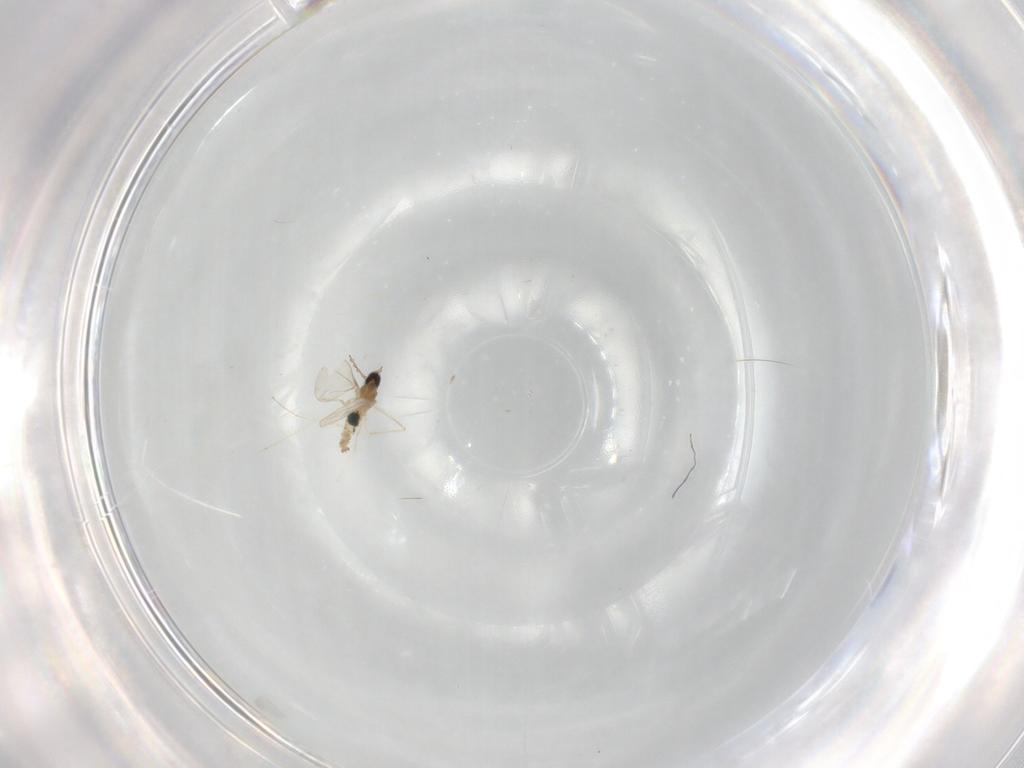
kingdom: Animalia
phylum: Arthropoda
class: Insecta
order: Diptera
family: Cecidomyiidae
